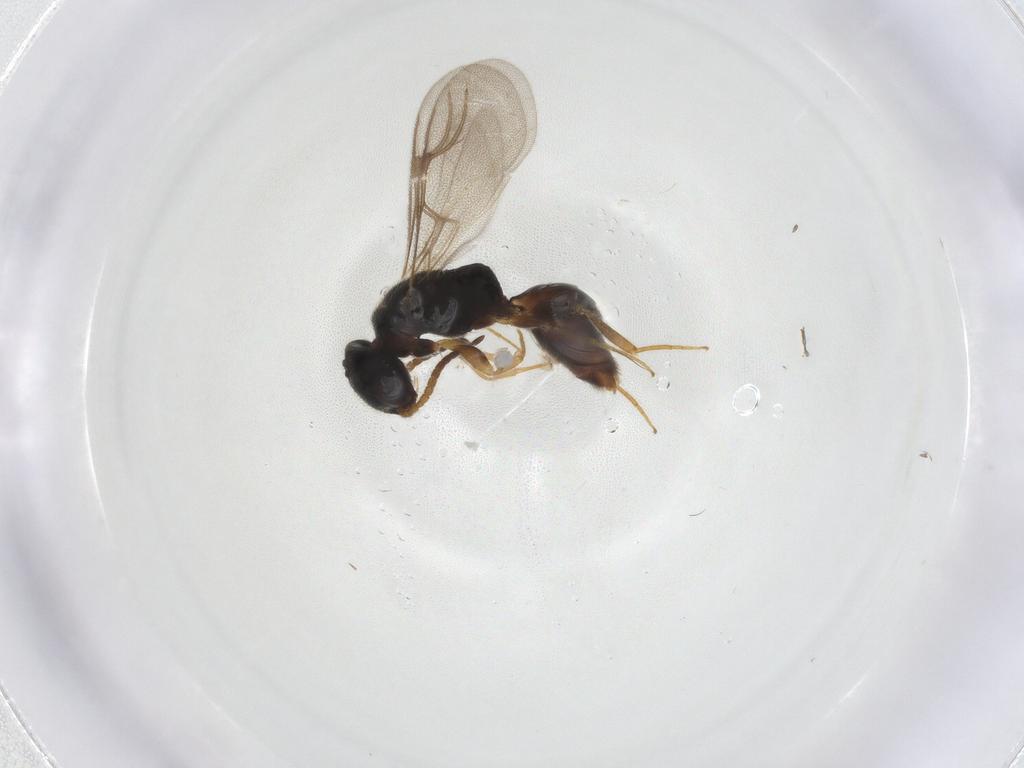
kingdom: Animalia
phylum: Arthropoda
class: Insecta
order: Hymenoptera
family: Bethylidae
